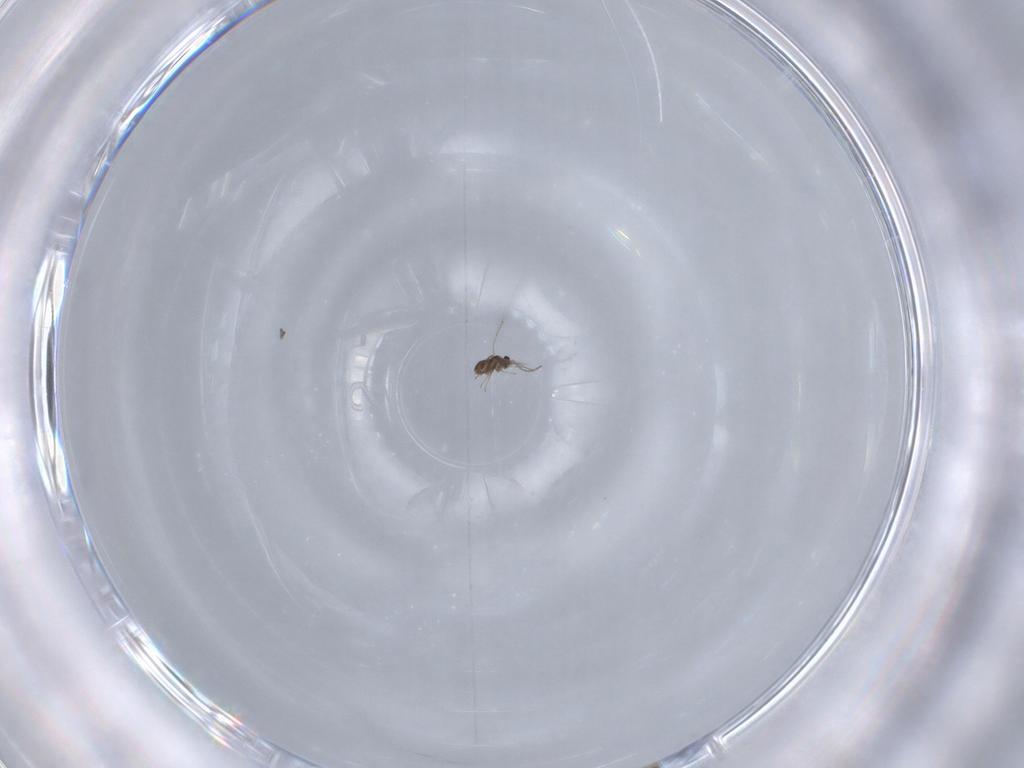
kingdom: Animalia
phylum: Arthropoda
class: Insecta
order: Hymenoptera
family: Mymaridae
